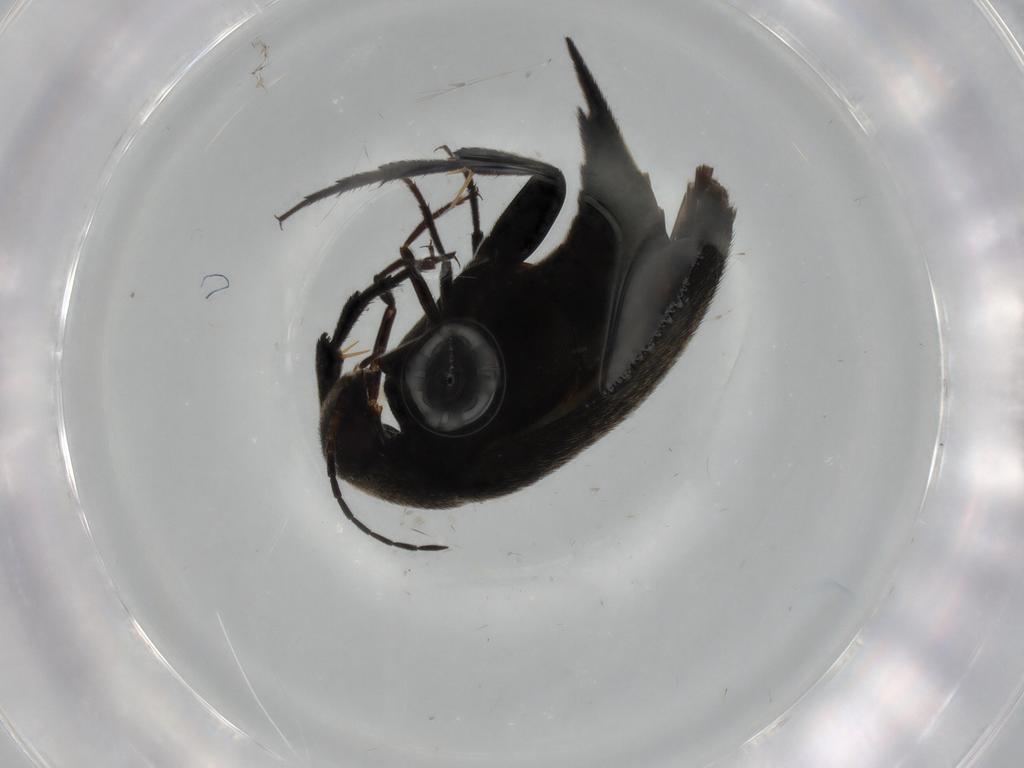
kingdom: Animalia
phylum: Arthropoda
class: Insecta
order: Coleoptera
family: Mordellidae
